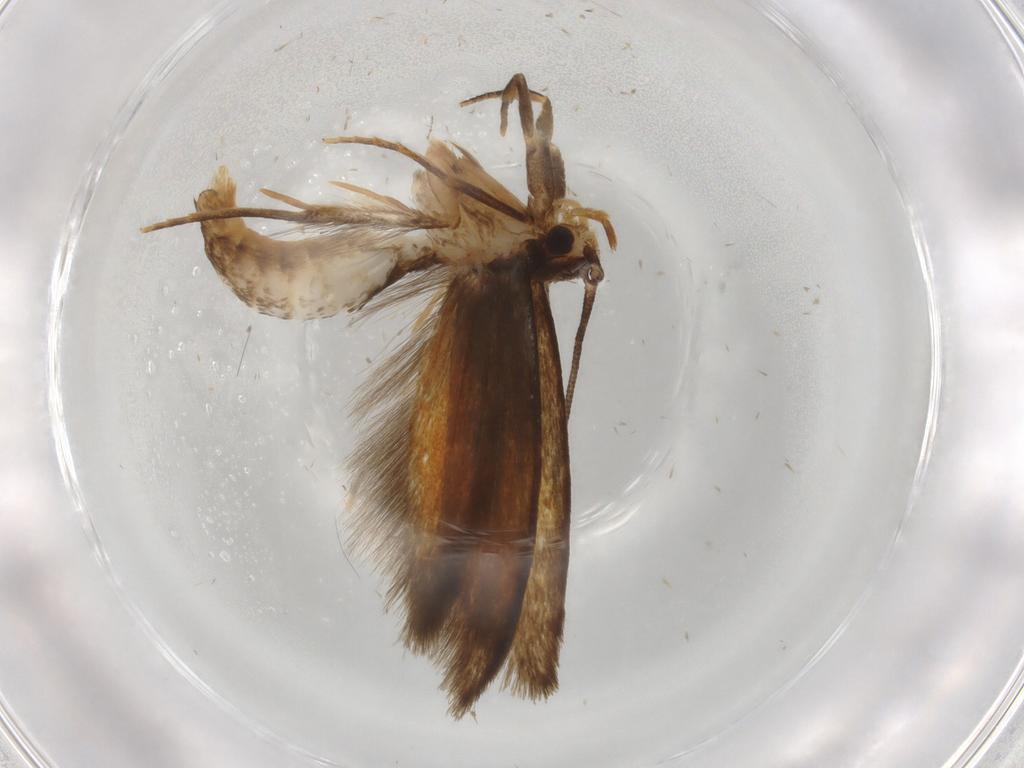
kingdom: Animalia
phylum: Arthropoda
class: Insecta
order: Lepidoptera
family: Tineidae
